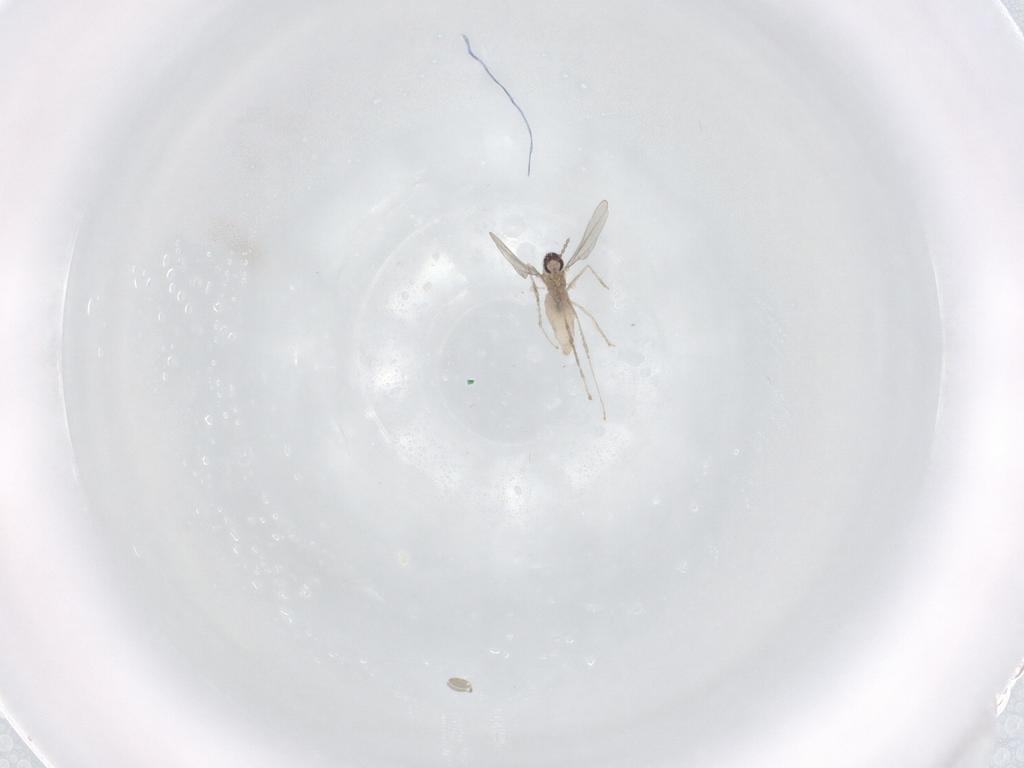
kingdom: Animalia
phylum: Arthropoda
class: Insecta
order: Diptera
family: Cecidomyiidae
